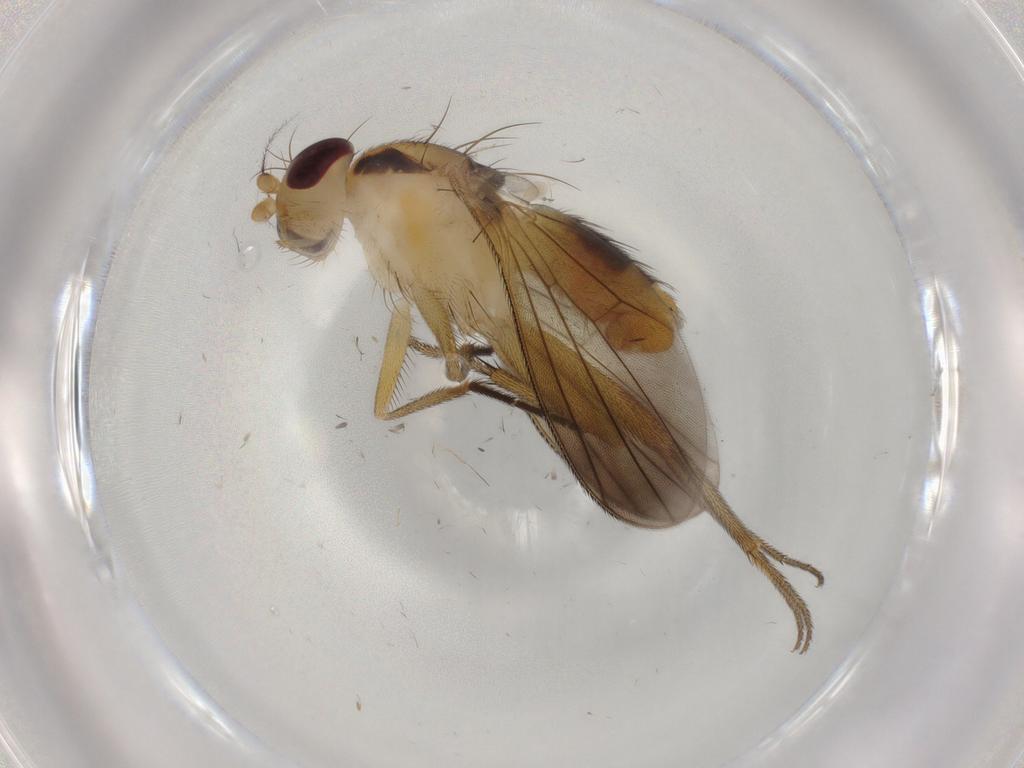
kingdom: Animalia
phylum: Arthropoda
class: Insecta
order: Diptera
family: Clusiidae
